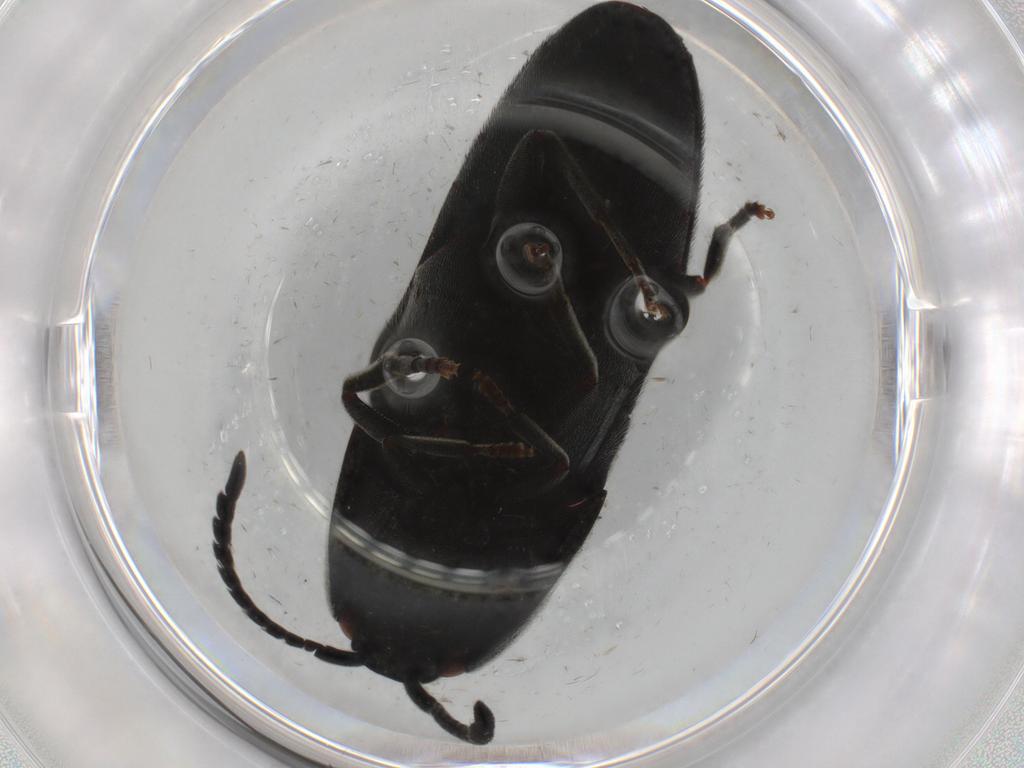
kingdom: Animalia
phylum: Arthropoda
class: Insecta
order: Coleoptera
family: Eucnemidae
